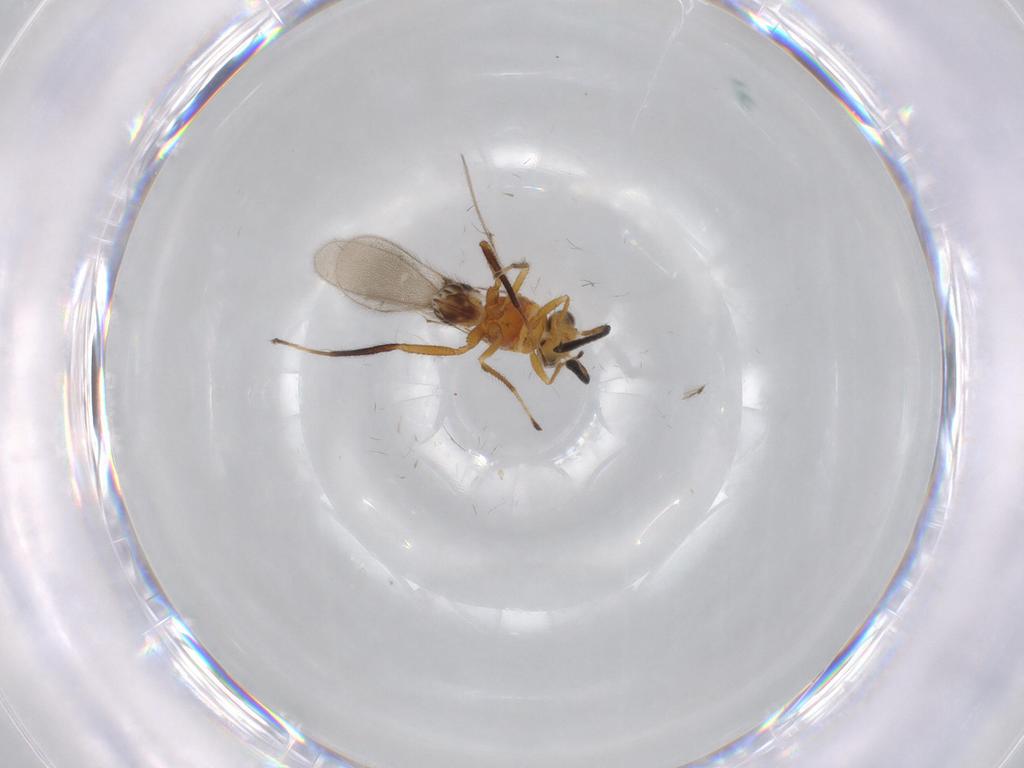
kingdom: Animalia
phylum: Arthropoda
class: Insecta
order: Hymenoptera
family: Mymaridae
